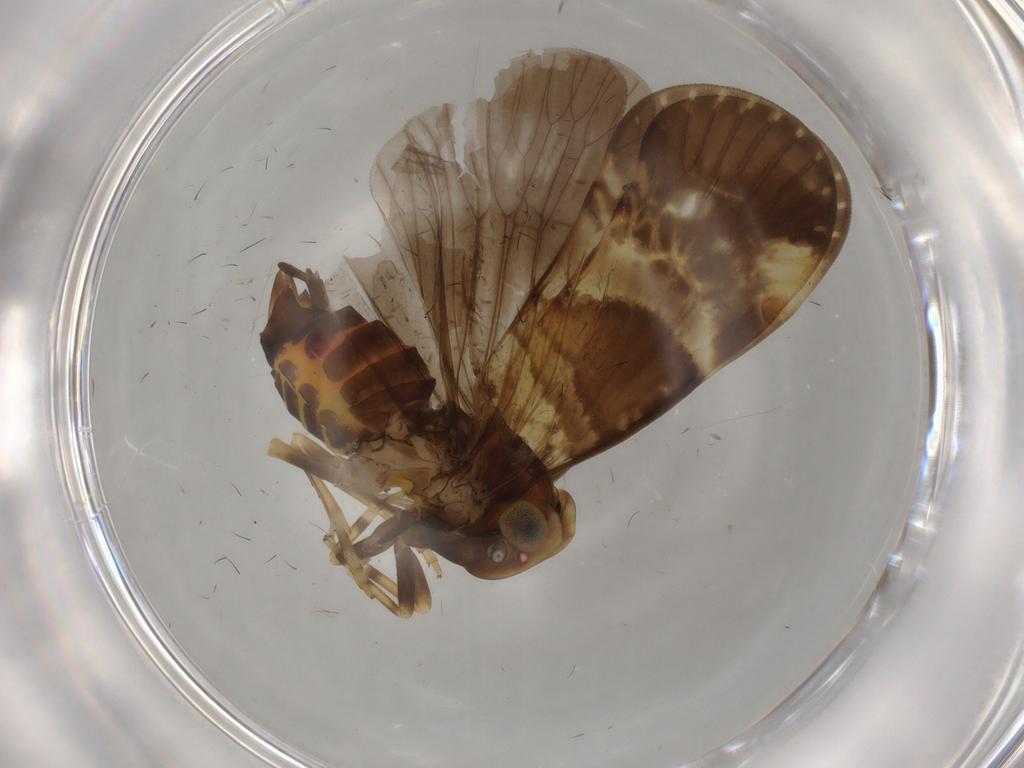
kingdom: Animalia
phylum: Arthropoda
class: Insecta
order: Hemiptera
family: Cixiidae
